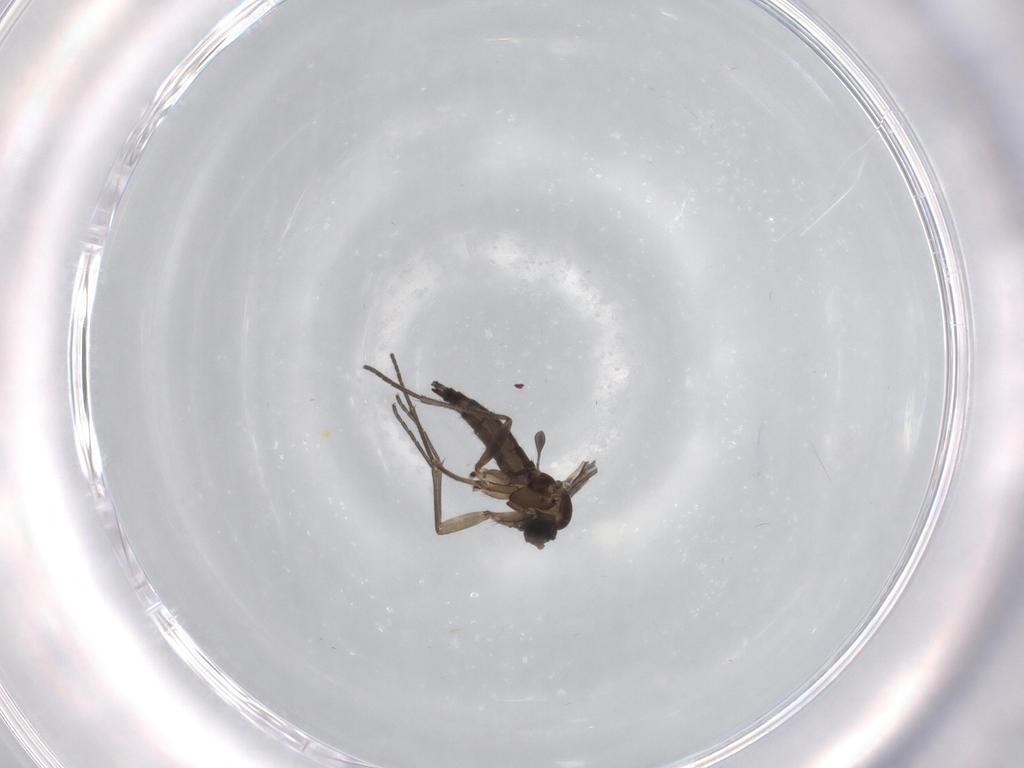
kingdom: Animalia
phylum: Arthropoda
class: Insecta
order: Diptera
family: Sciaridae
